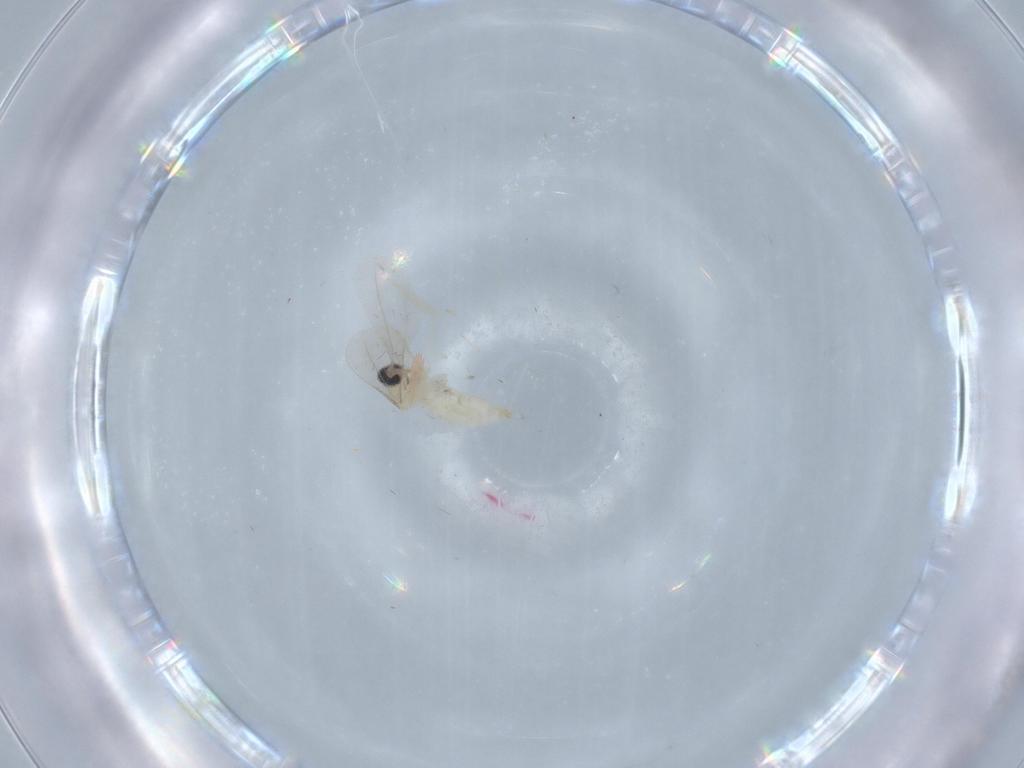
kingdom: Animalia
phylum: Arthropoda
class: Insecta
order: Diptera
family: Cecidomyiidae
